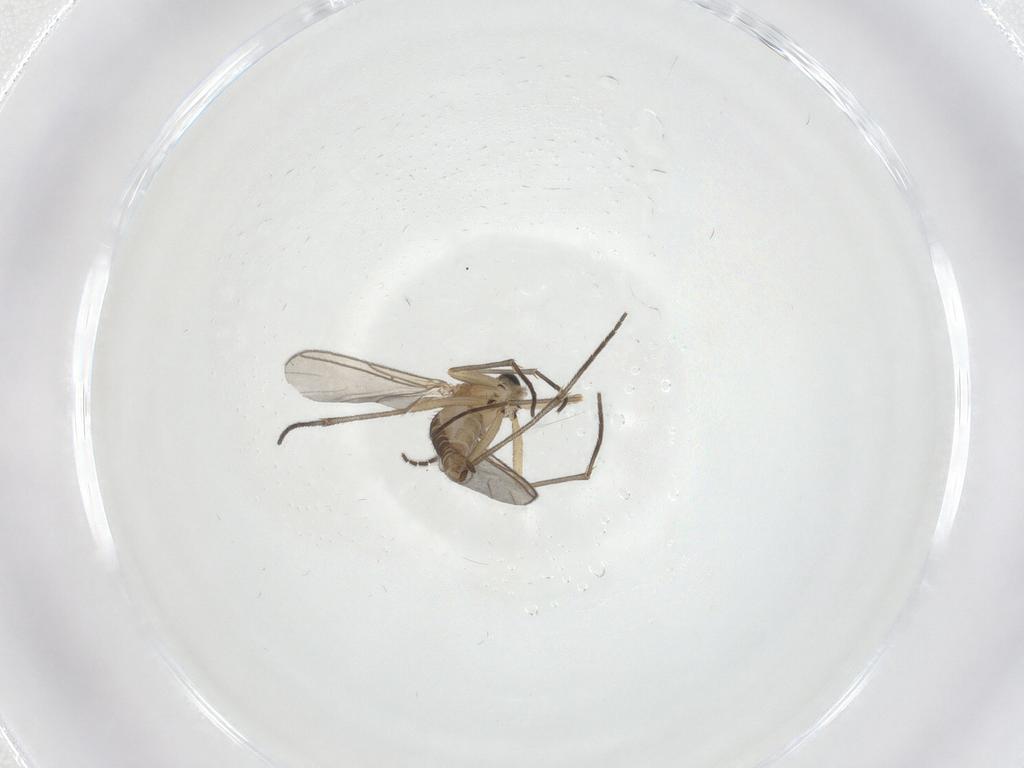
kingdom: Animalia
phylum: Arthropoda
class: Insecta
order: Diptera
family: Sciaridae
